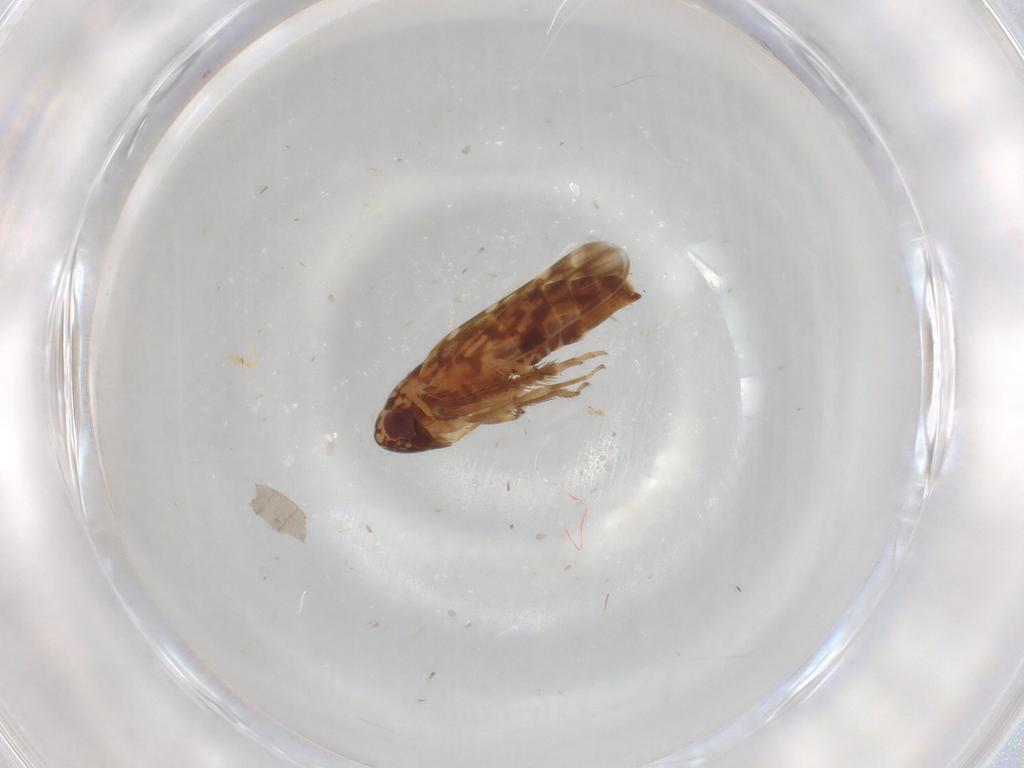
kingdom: Animalia
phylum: Arthropoda
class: Insecta
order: Hemiptera
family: Cicadellidae
